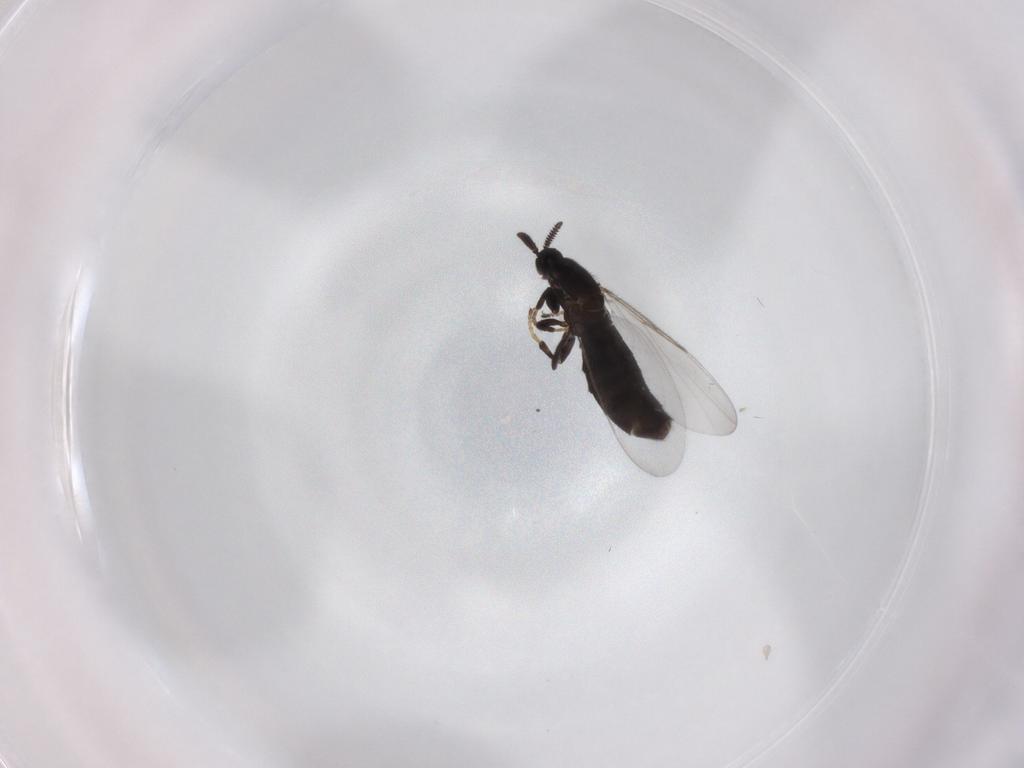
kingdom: Animalia
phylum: Arthropoda
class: Insecta
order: Diptera
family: Scatopsidae
